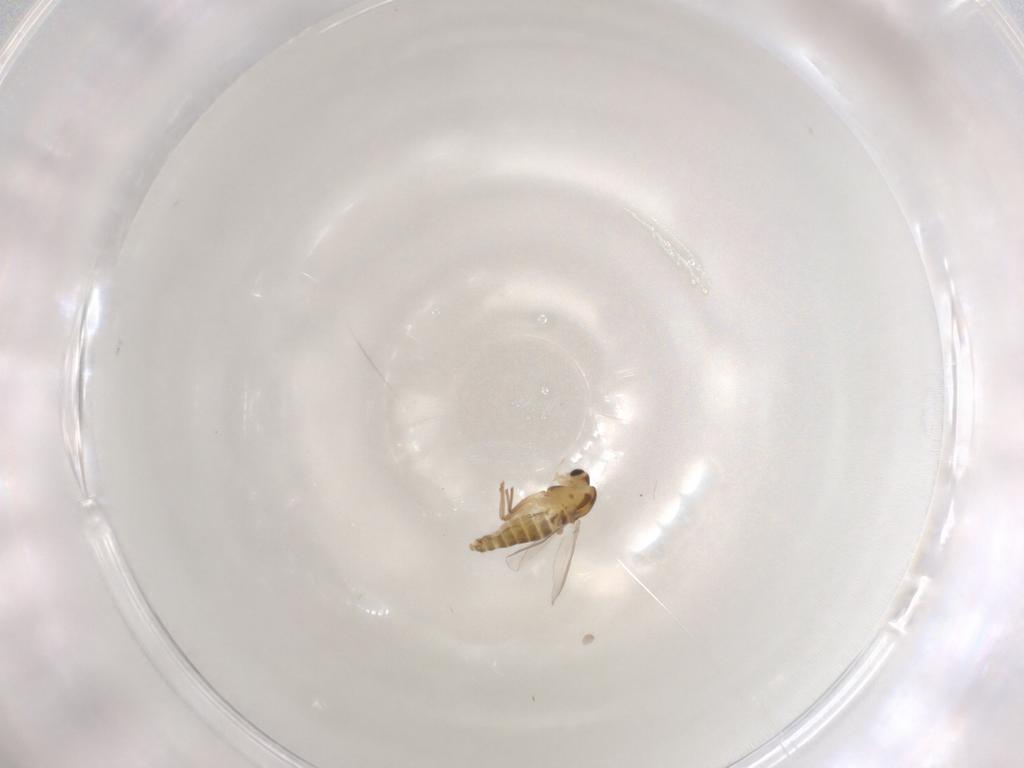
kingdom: Animalia
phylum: Arthropoda
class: Insecta
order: Diptera
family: Chironomidae
